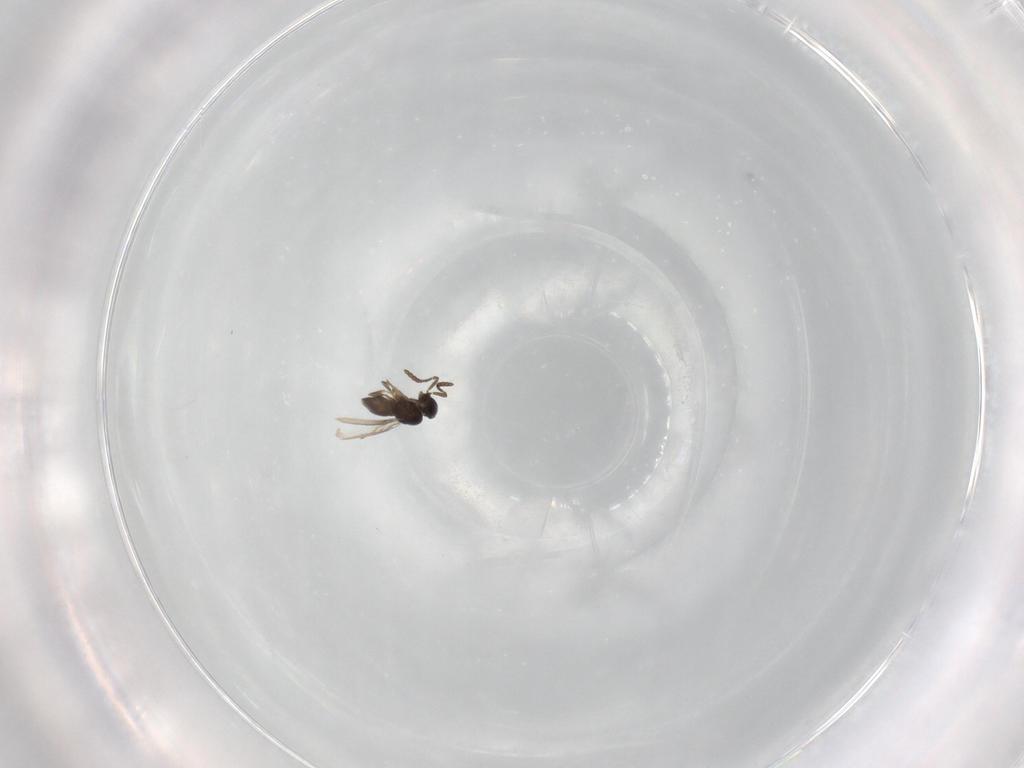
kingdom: Animalia
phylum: Arthropoda
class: Insecta
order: Hymenoptera
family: Scelionidae
